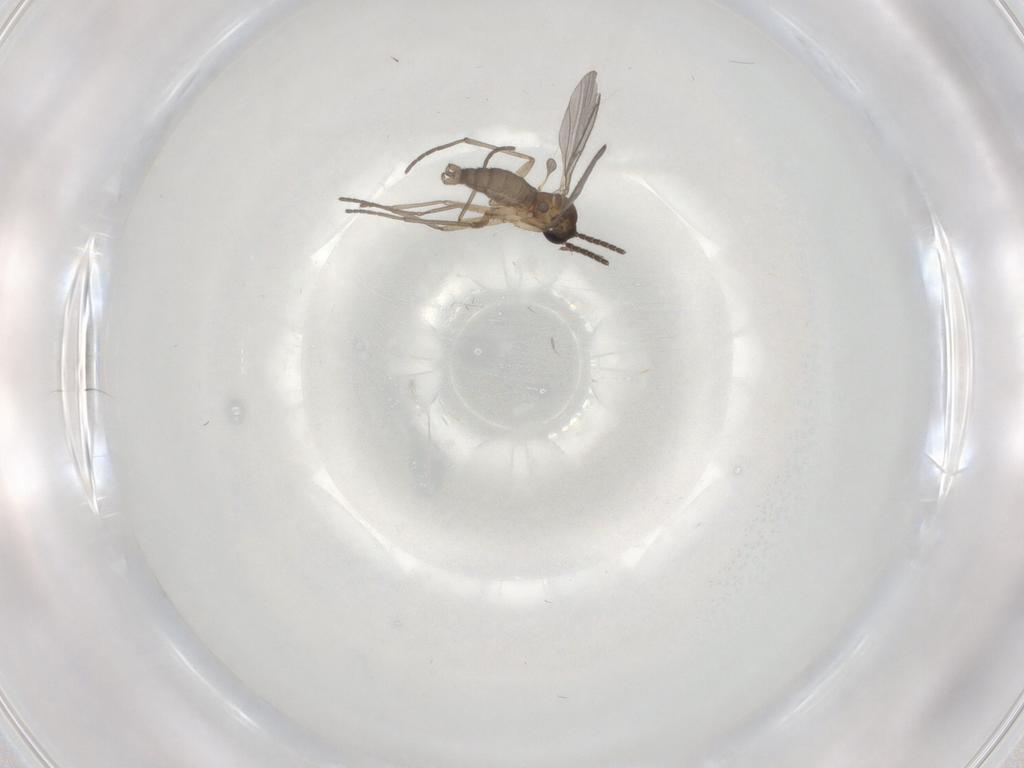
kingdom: Animalia
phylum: Arthropoda
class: Insecta
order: Diptera
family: Sciaridae
